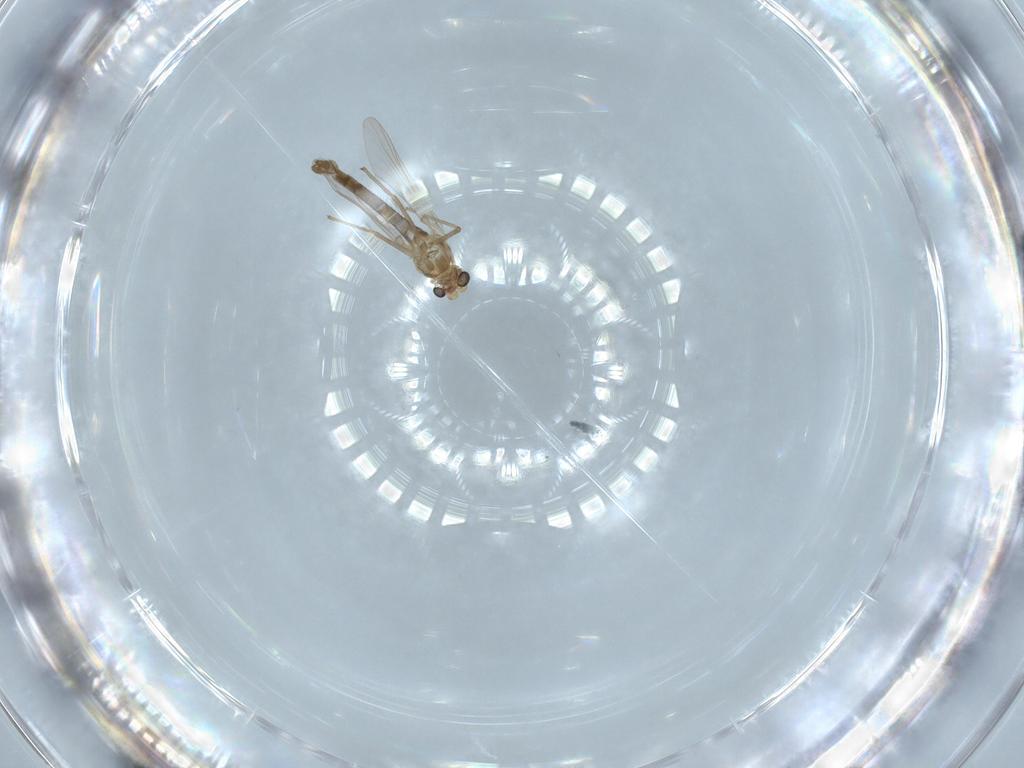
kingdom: Animalia
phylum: Arthropoda
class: Insecta
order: Diptera
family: Chironomidae
